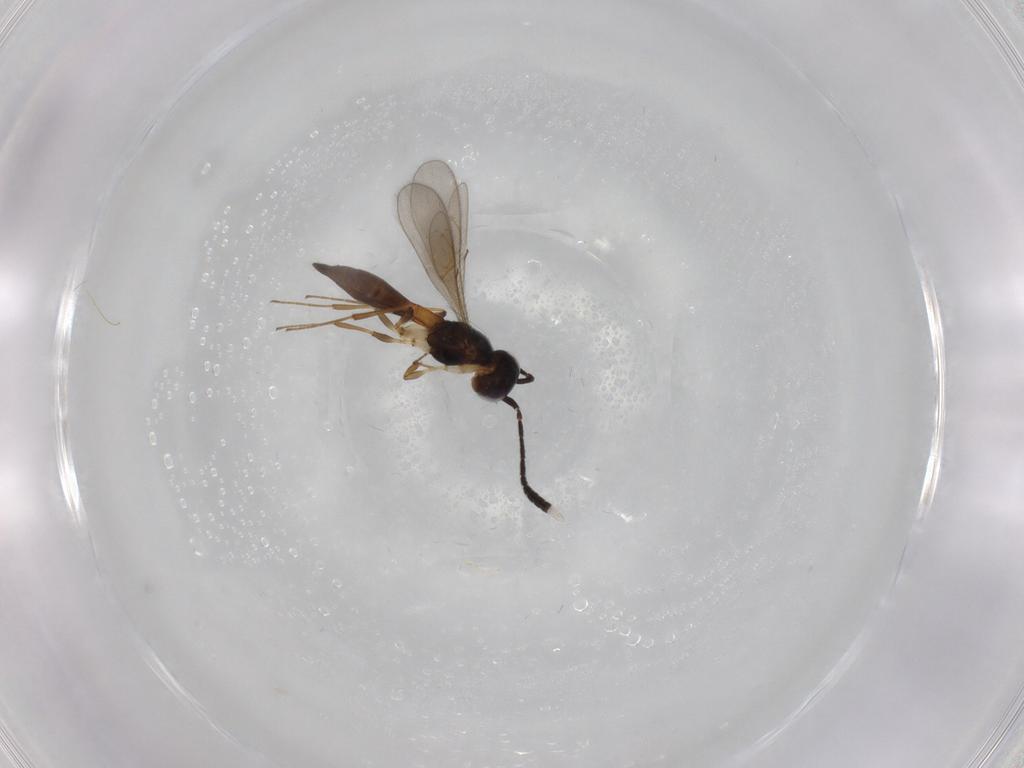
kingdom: Animalia
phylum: Arthropoda
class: Insecta
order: Hymenoptera
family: Scelionidae
